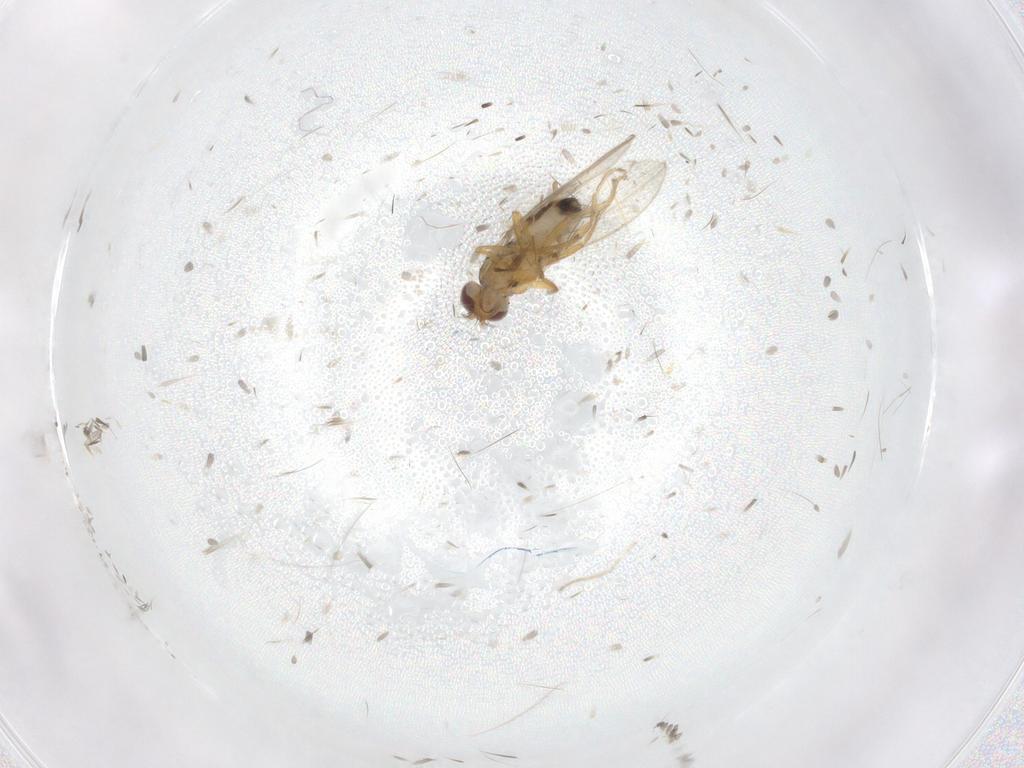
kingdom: Animalia
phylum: Arthropoda
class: Insecta
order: Diptera
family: Chironomidae
